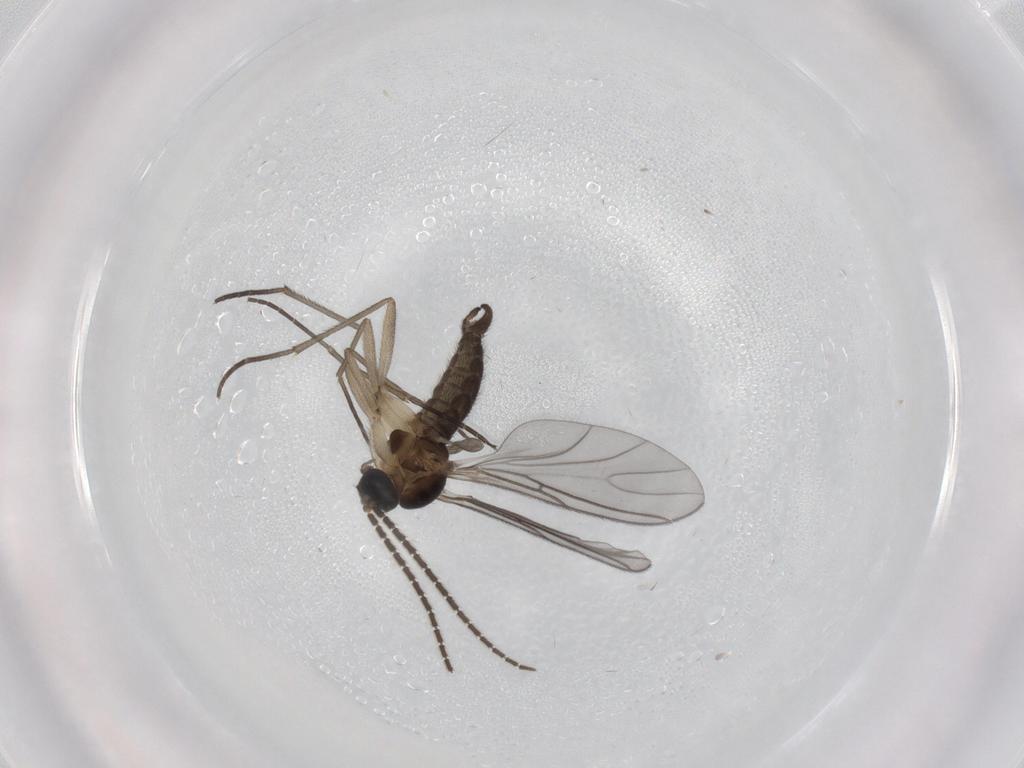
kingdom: Animalia
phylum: Arthropoda
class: Insecta
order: Diptera
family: Sciaridae
